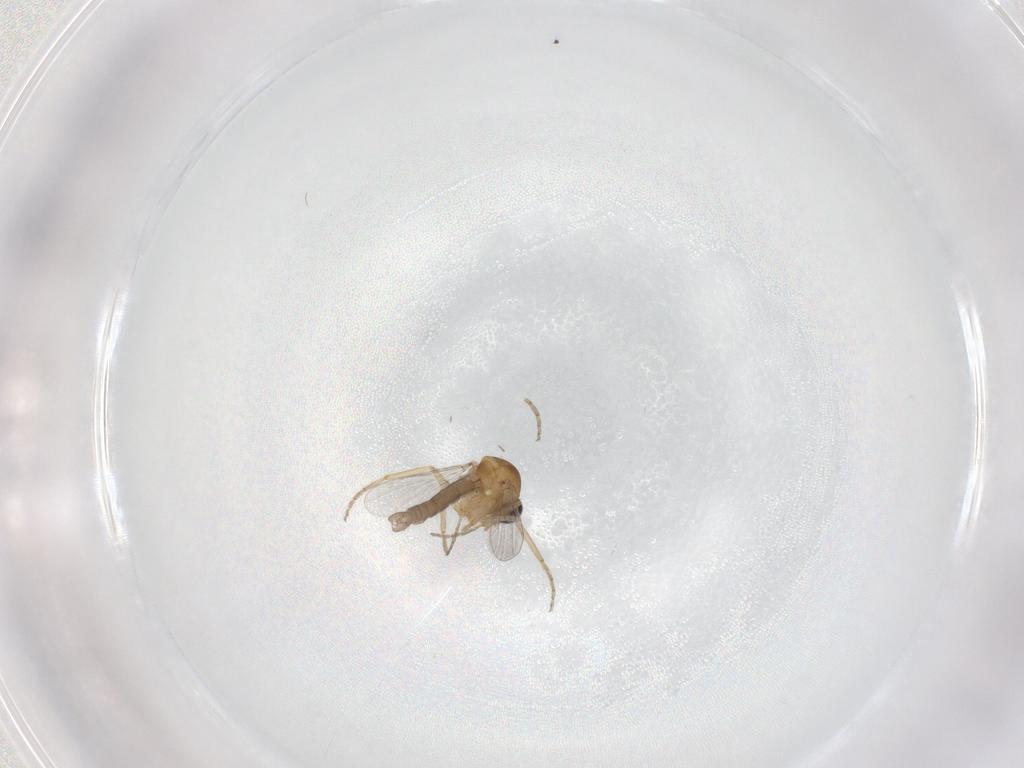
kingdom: Animalia
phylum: Arthropoda
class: Insecta
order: Diptera
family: Ceratopogonidae
